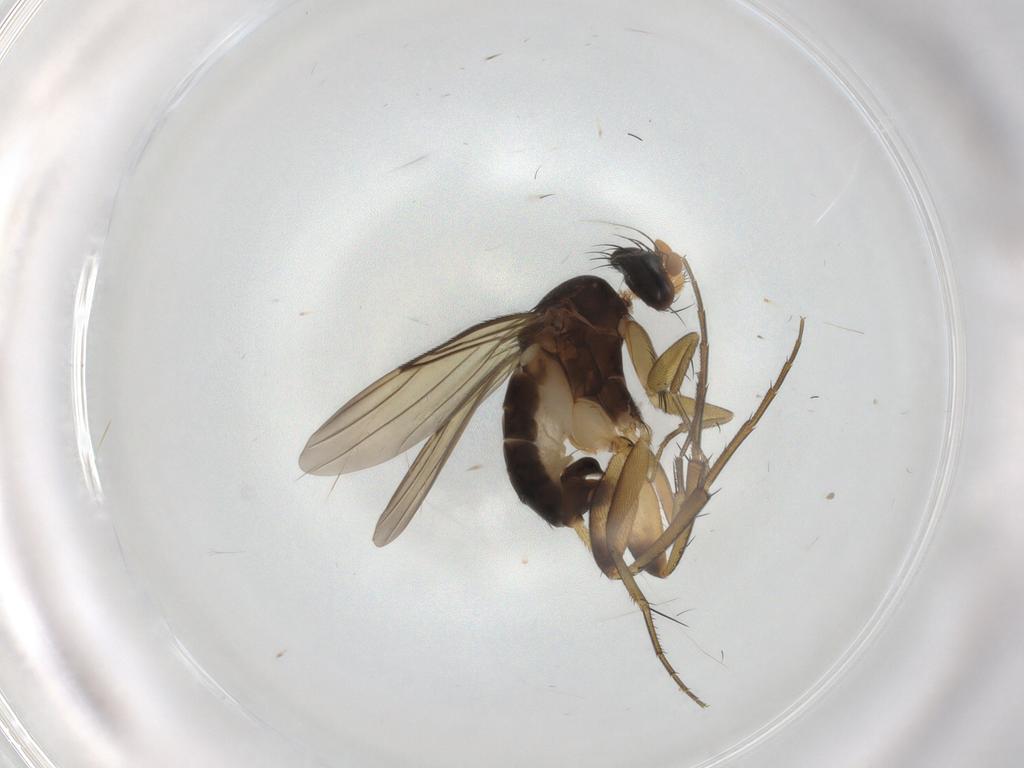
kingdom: Animalia
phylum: Arthropoda
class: Insecta
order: Diptera
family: Phoridae
